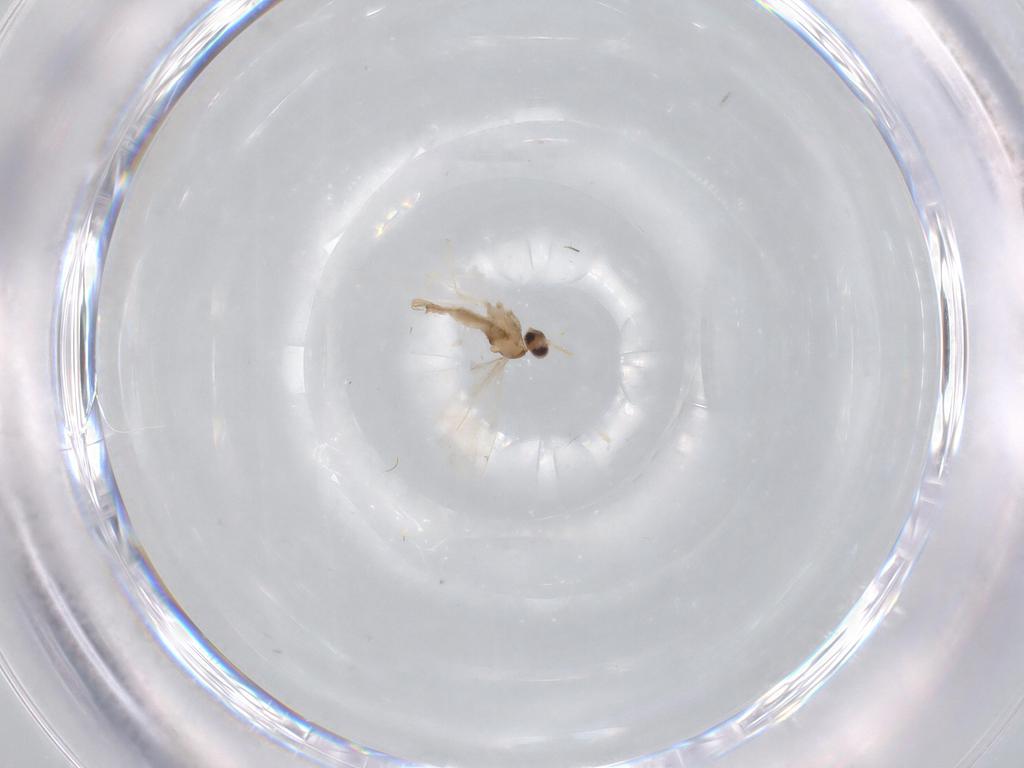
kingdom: Animalia
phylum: Arthropoda
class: Insecta
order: Diptera
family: Cecidomyiidae
